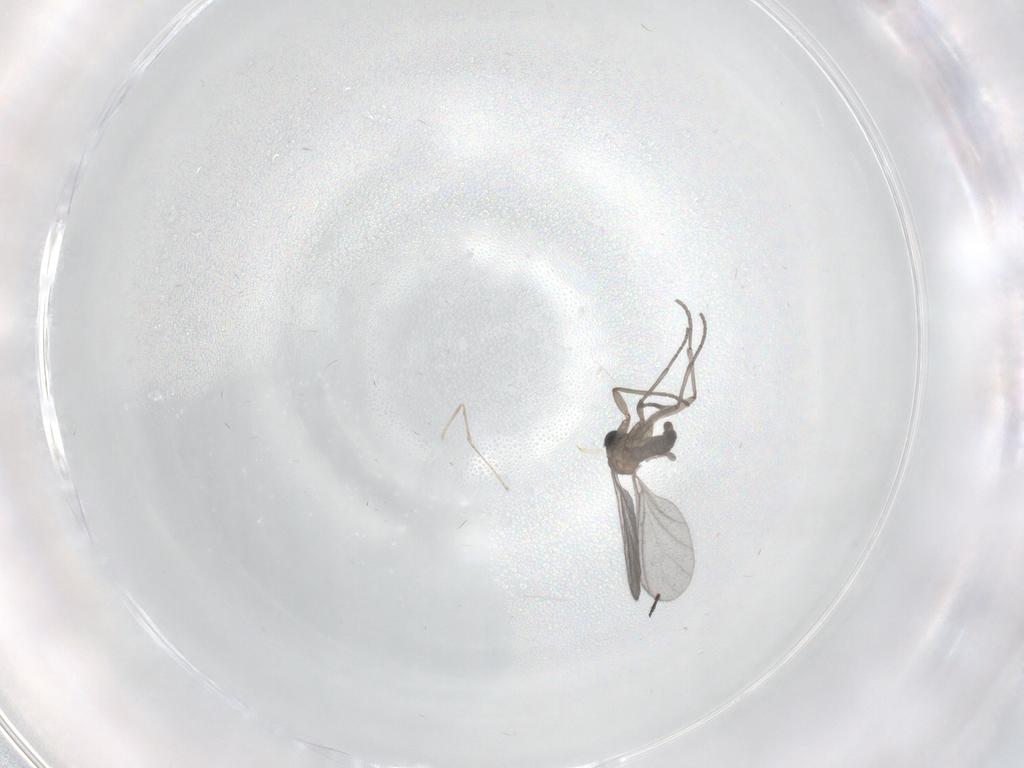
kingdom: Animalia
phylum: Arthropoda
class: Insecta
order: Diptera
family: Sciaridae
